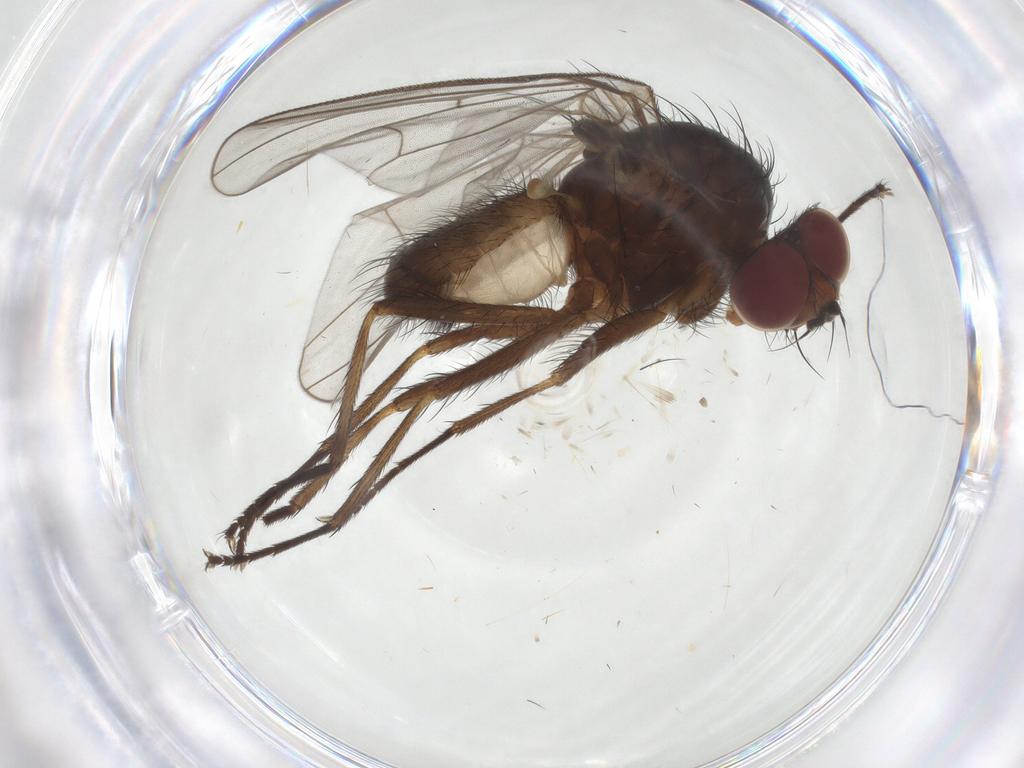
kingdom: Animalia
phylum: Arthropoda
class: Insecta
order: Diptera
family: Anthomyiidae
